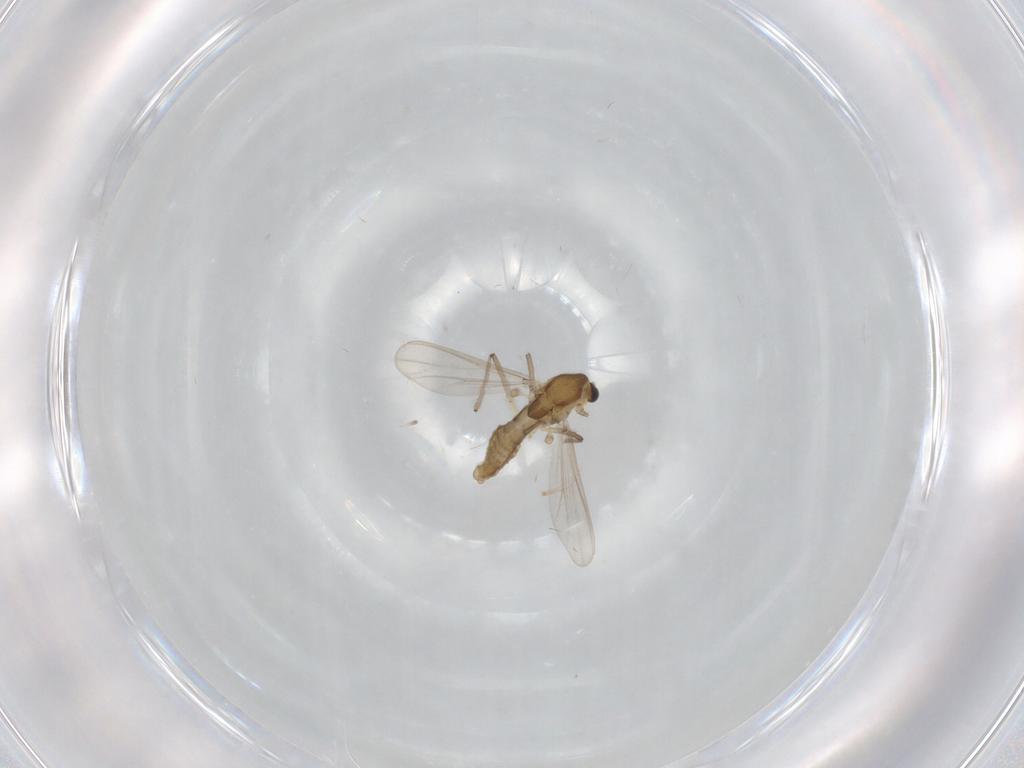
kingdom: Animalia
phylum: Arthropoda
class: Insecta
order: Diptera
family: Chironomidae
